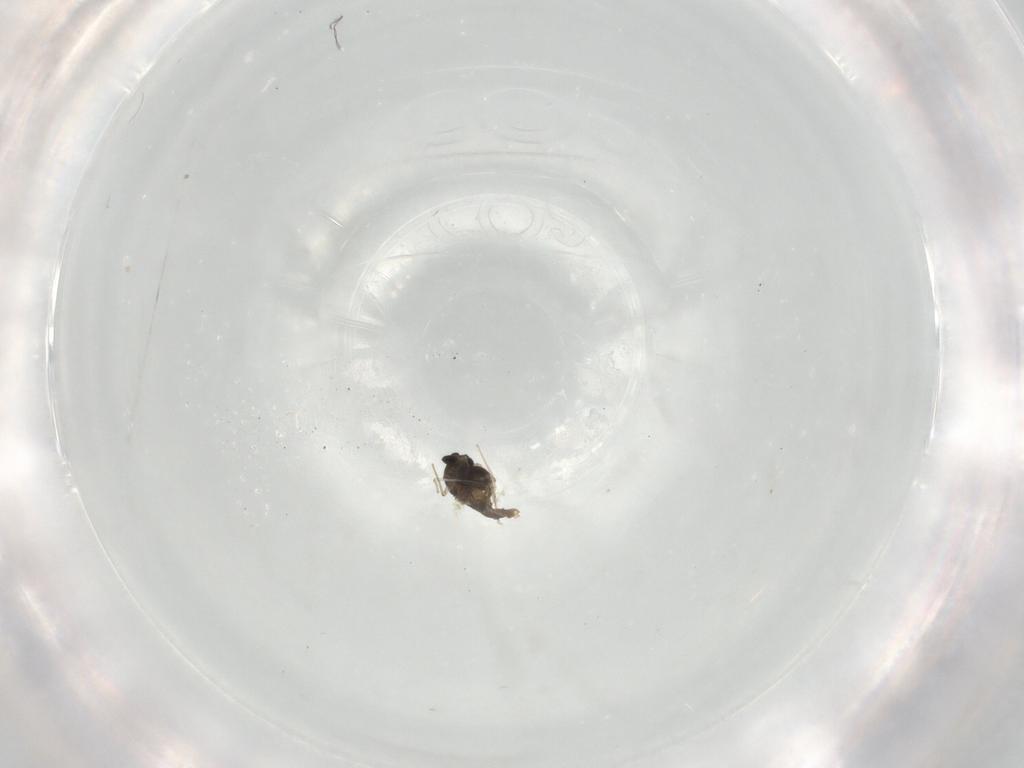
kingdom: Animalia
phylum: Arthropoda
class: Insecta
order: Diptera
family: Chironomidae
